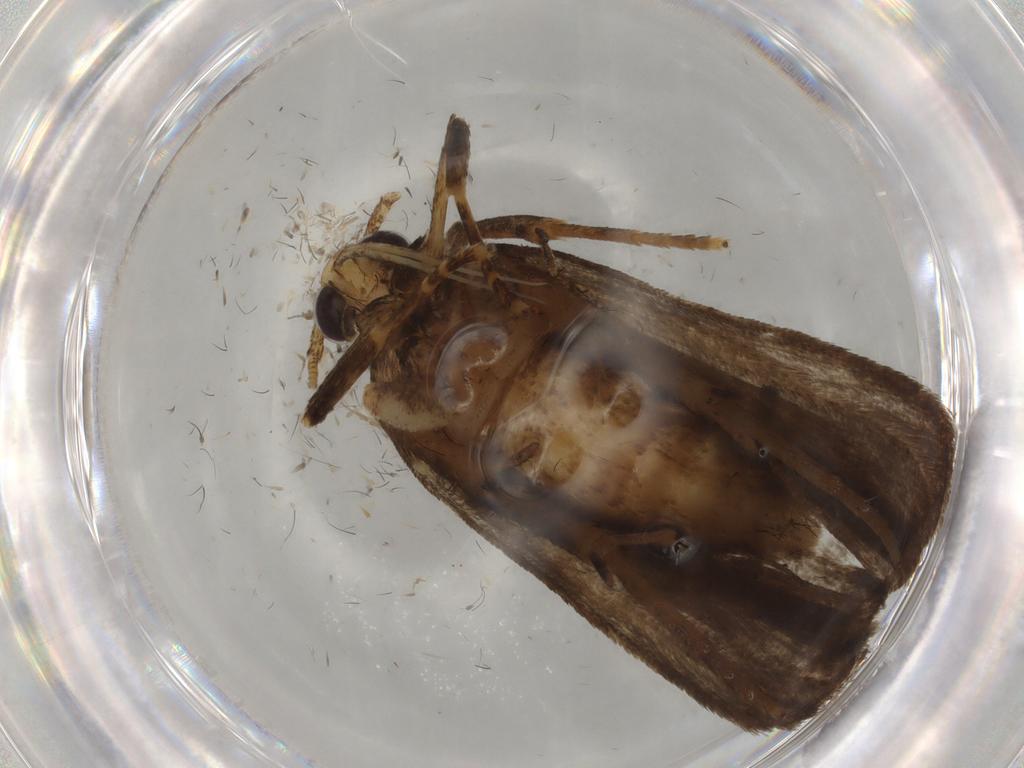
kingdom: Animalia
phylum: Arthropoda
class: Insecta
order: Lepidoptera
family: Autostichidae
